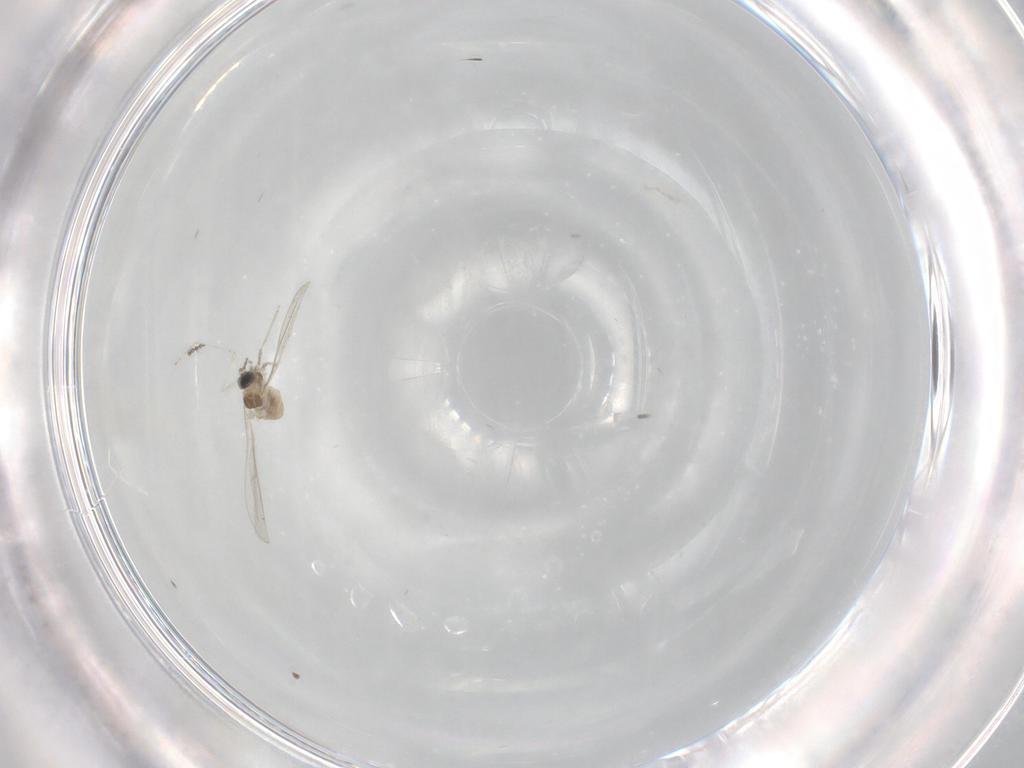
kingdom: Animalia
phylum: Arthropoda
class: Insecta
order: Diptera
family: Cecidomyiidae
